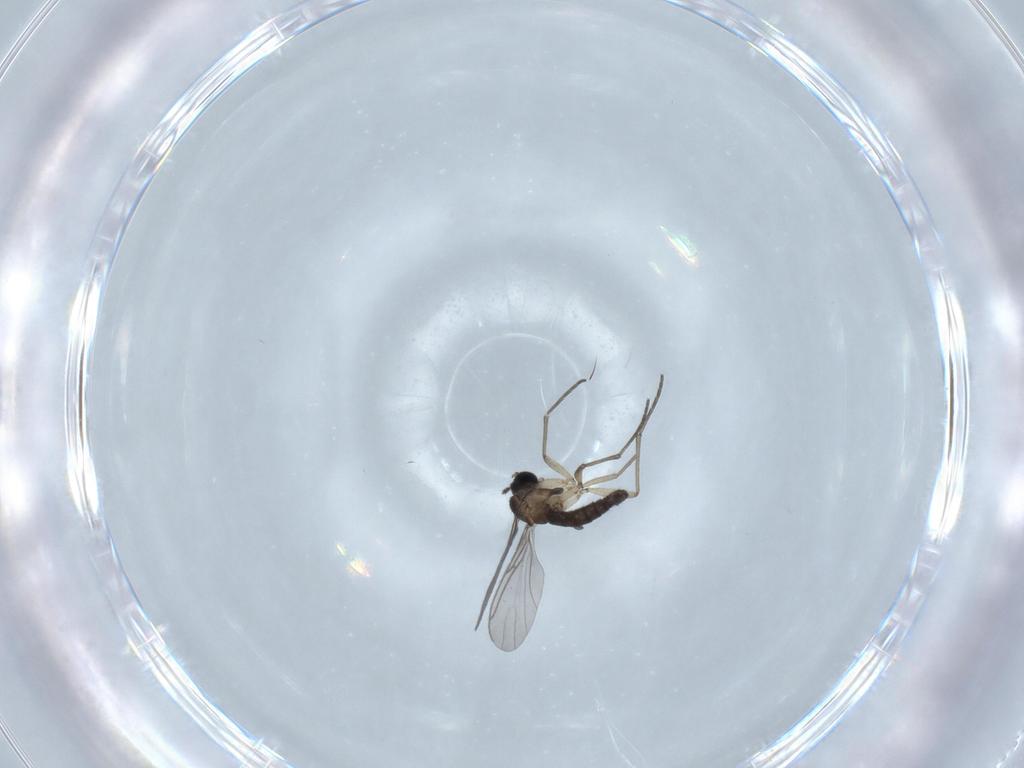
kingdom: Animalia
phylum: Arthropoda
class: Insecta
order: Diptera
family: Sciaridae
